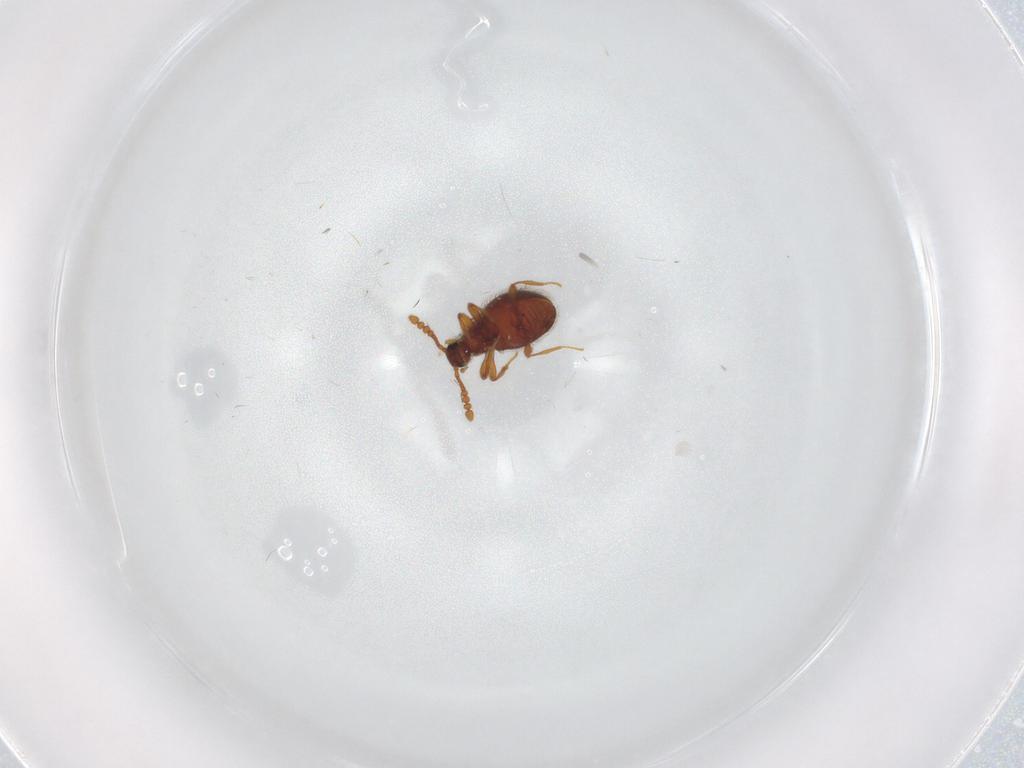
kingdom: Animalia
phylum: Arthropoda
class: Insecta
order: Coleoptera
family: Ptilodactylidae
